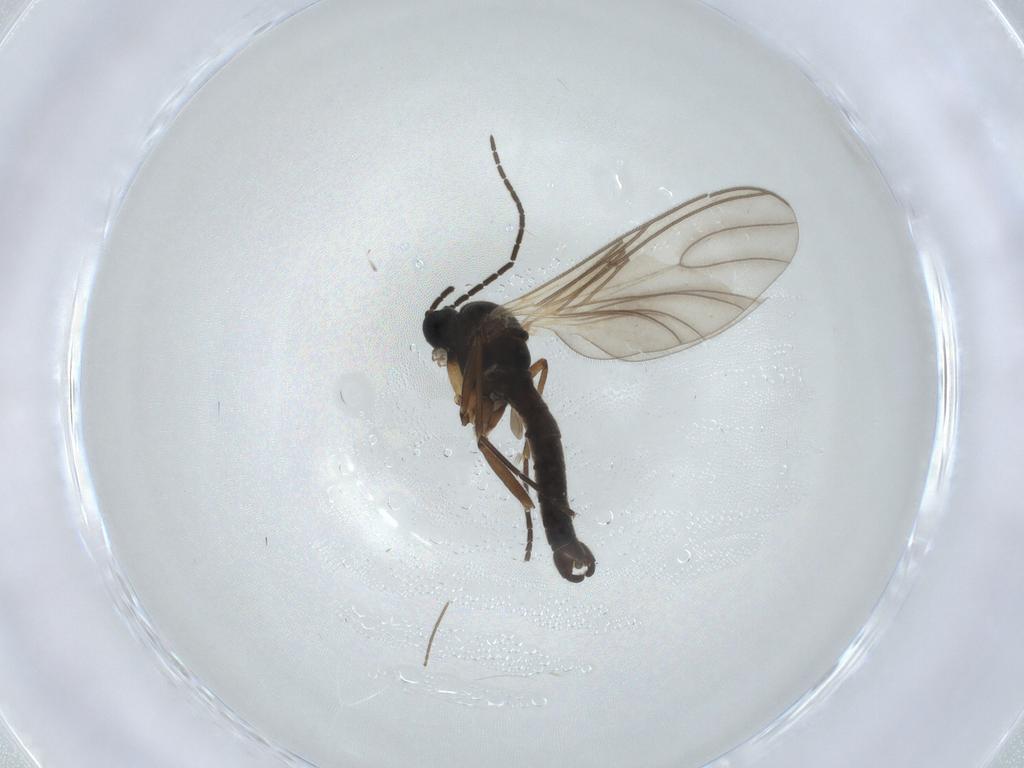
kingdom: Animalia
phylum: Arthropoda
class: Insecta
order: Diptera
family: Sciaridae
